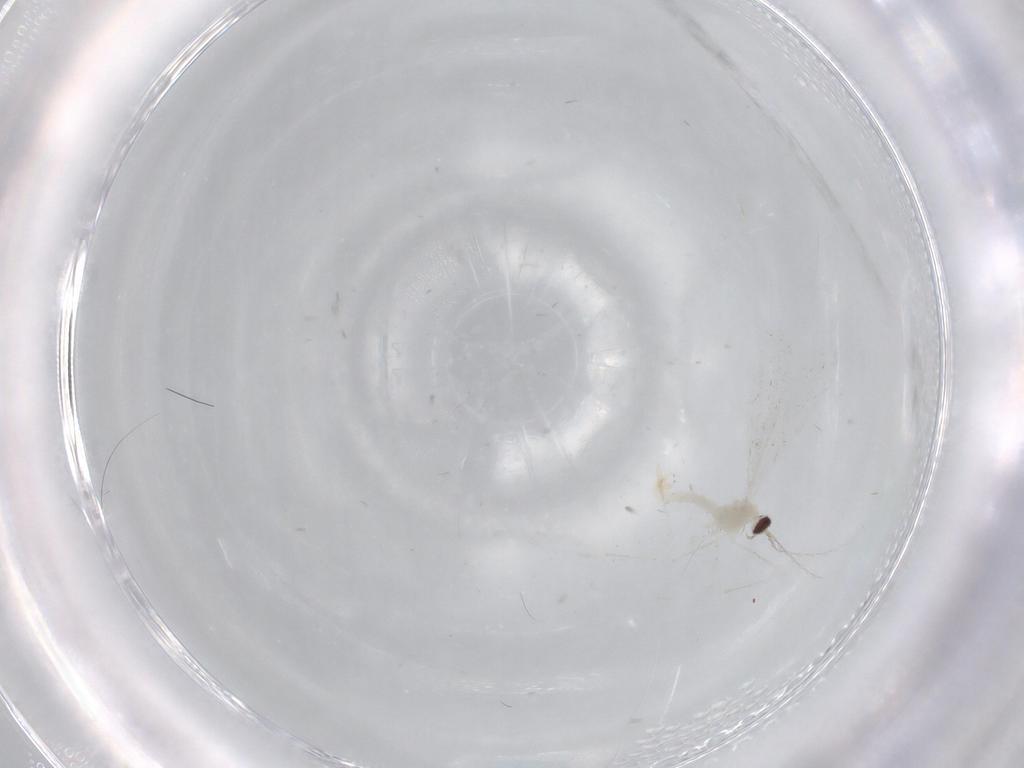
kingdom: Animalia
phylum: Arthropoda
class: Insecta
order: Diptera
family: Cecidomyiidae
